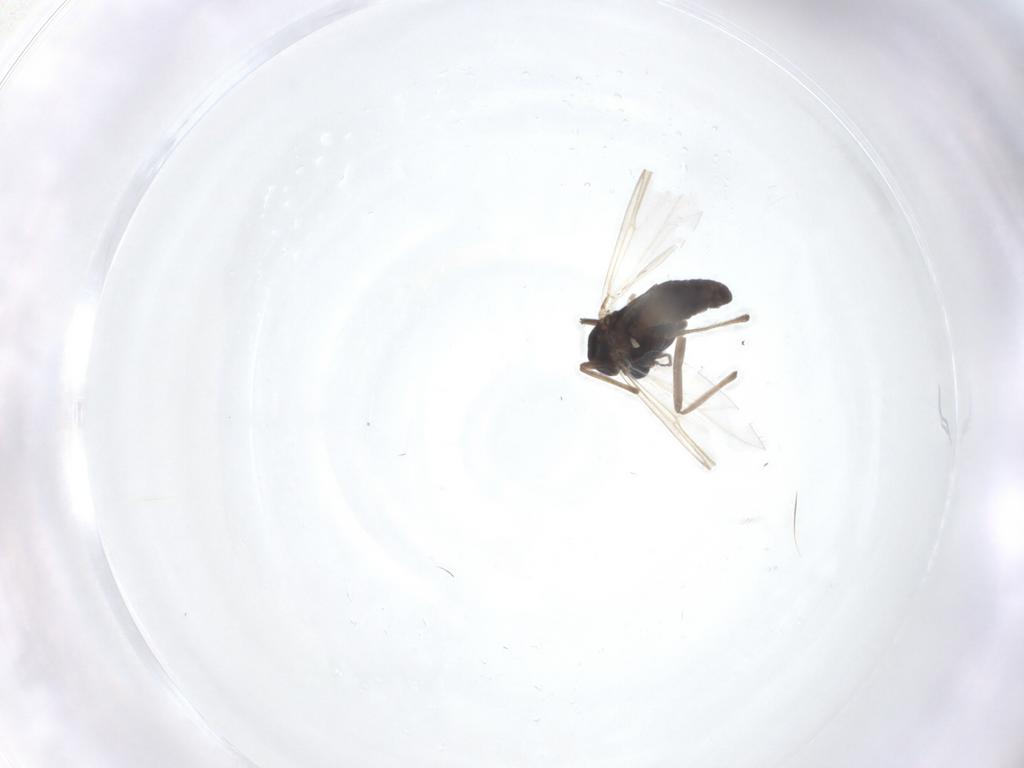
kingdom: Animalia
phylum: Arthropoda
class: Insecta
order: Diptera
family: Chironomidae
